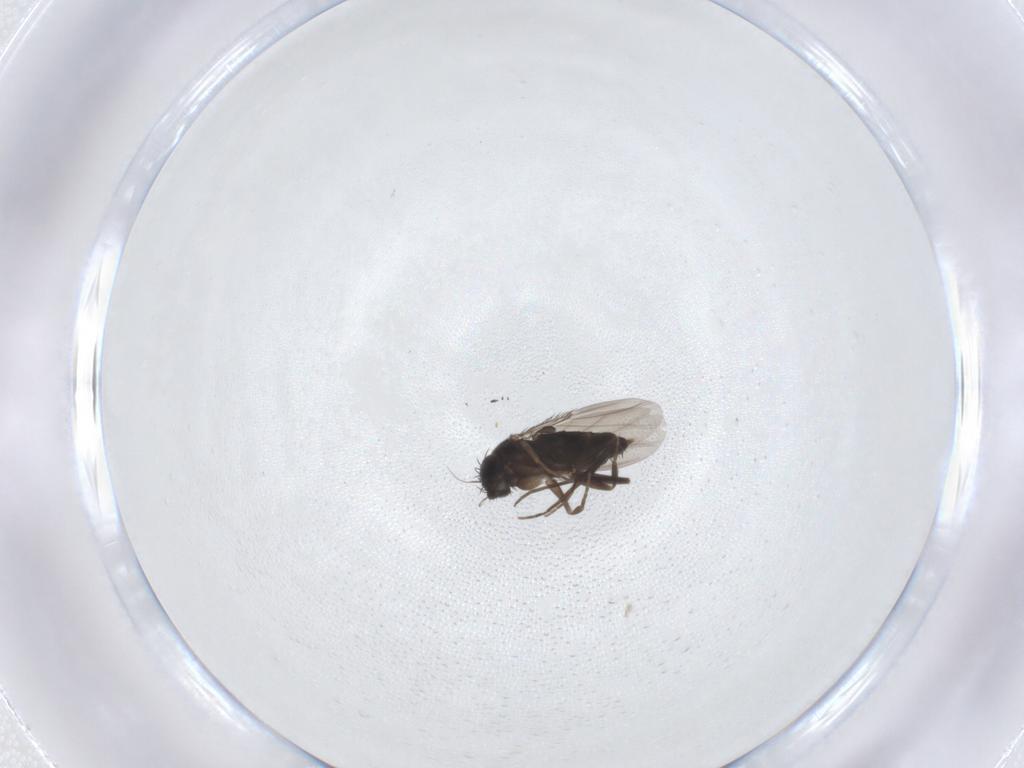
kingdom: Animalia
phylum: Arthropoda
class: Insecta
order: Diptera
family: Phoridae
